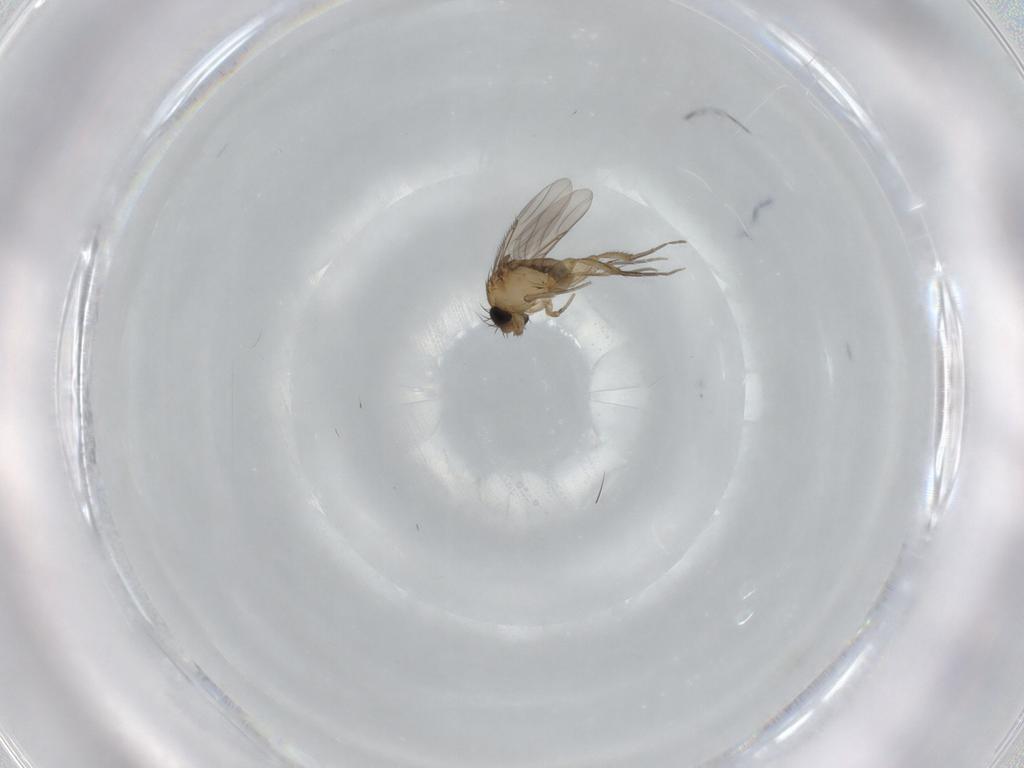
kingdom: Animalia
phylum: Arthropoda
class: Insecta
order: Diptera
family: Phoridae
